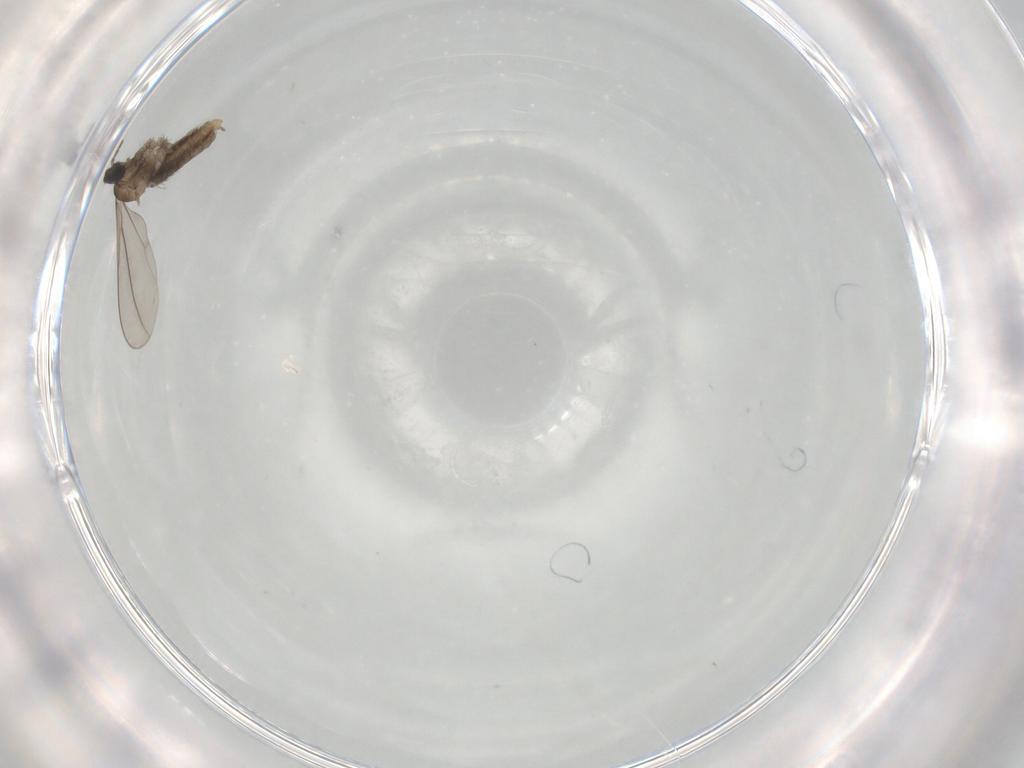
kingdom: Animalia
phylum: Arthropoda
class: Insecta
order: Diptera
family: Cecidomyiidae
